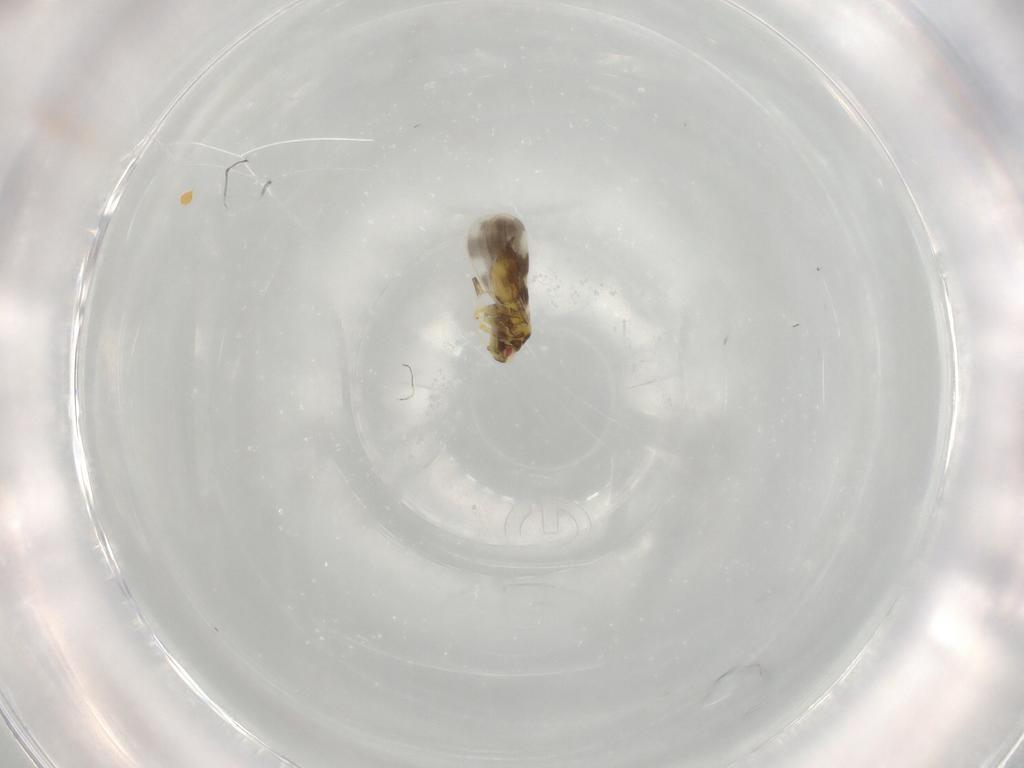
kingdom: Animalia
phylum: Arthropoda
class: Insecta
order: Hemiptera
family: Aleyrodidae
